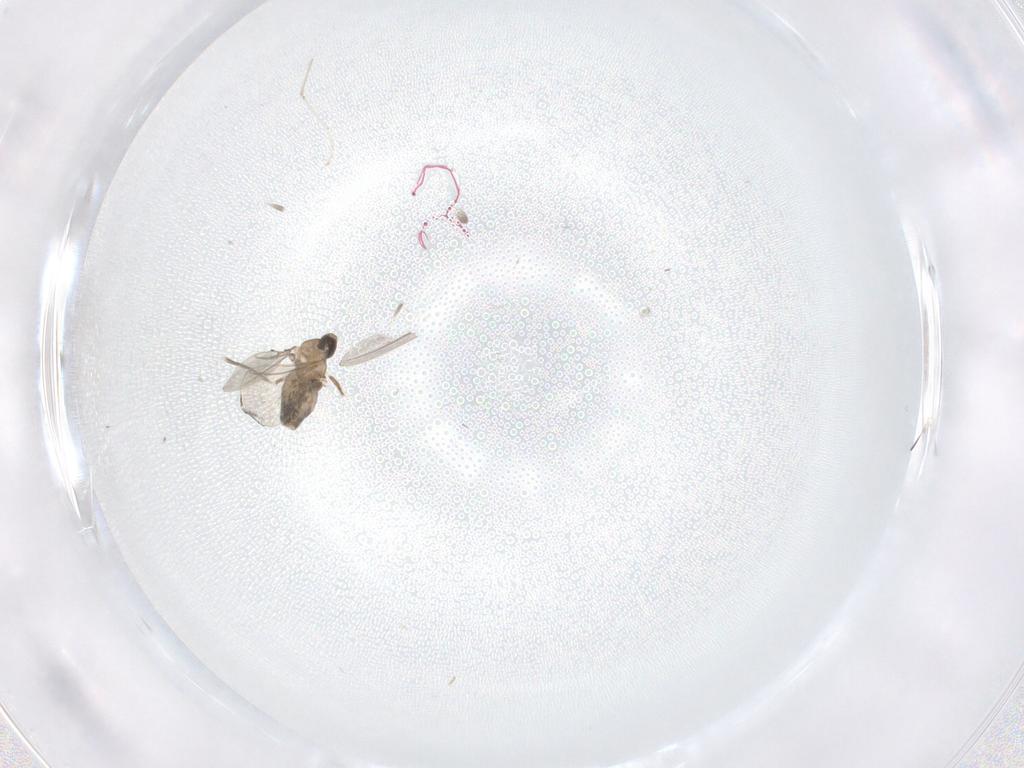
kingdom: Animalia
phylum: Arthropoda
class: Insecta
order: Diptera
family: Cecidomyiidae
